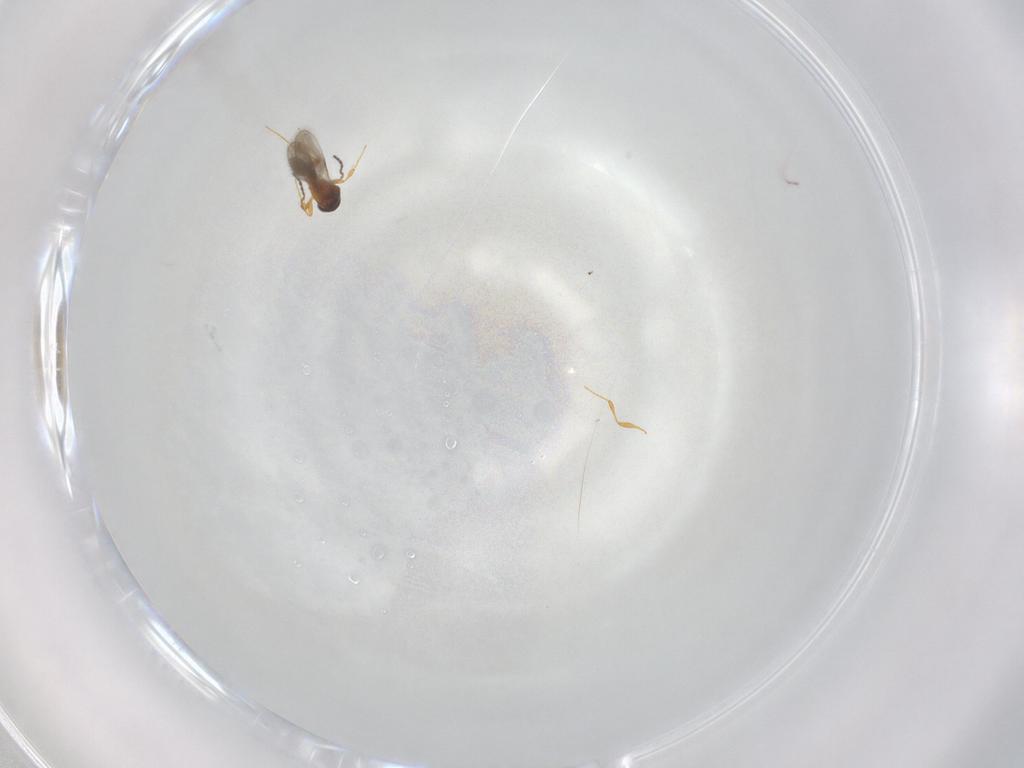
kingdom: Animalia
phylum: Arthropoda
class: Insecta
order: Hymenoptera
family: Platygastridae
